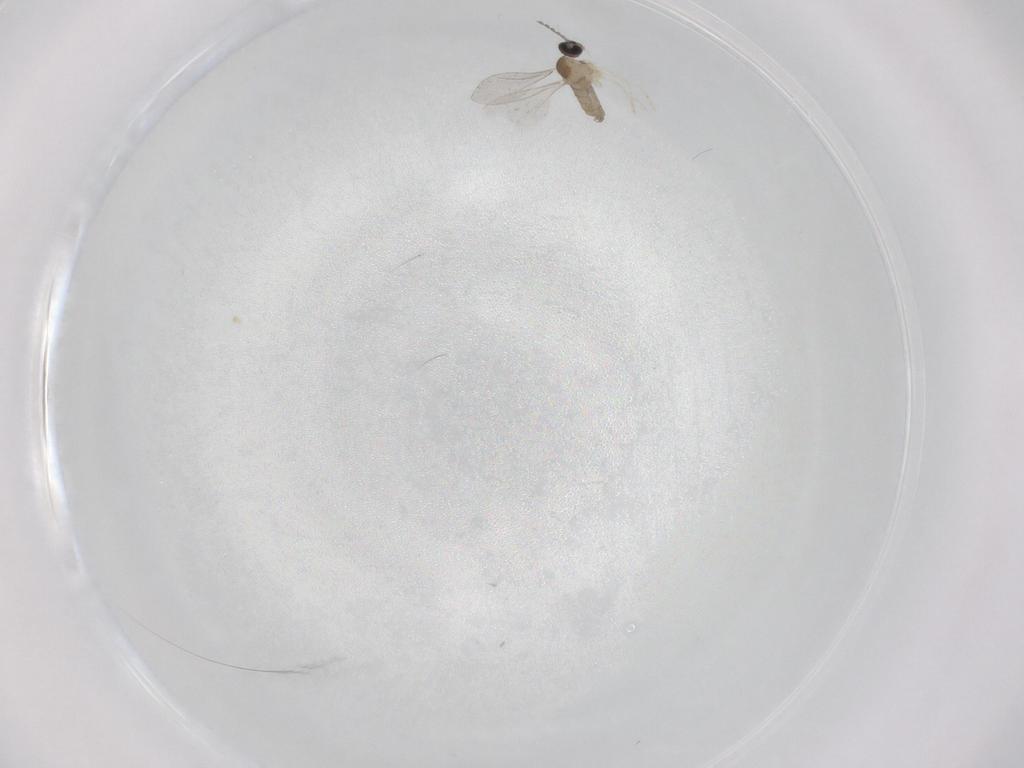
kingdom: Animalia
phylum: Arthropoda
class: Insecta
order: Diptera
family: Cecidomyiidae
